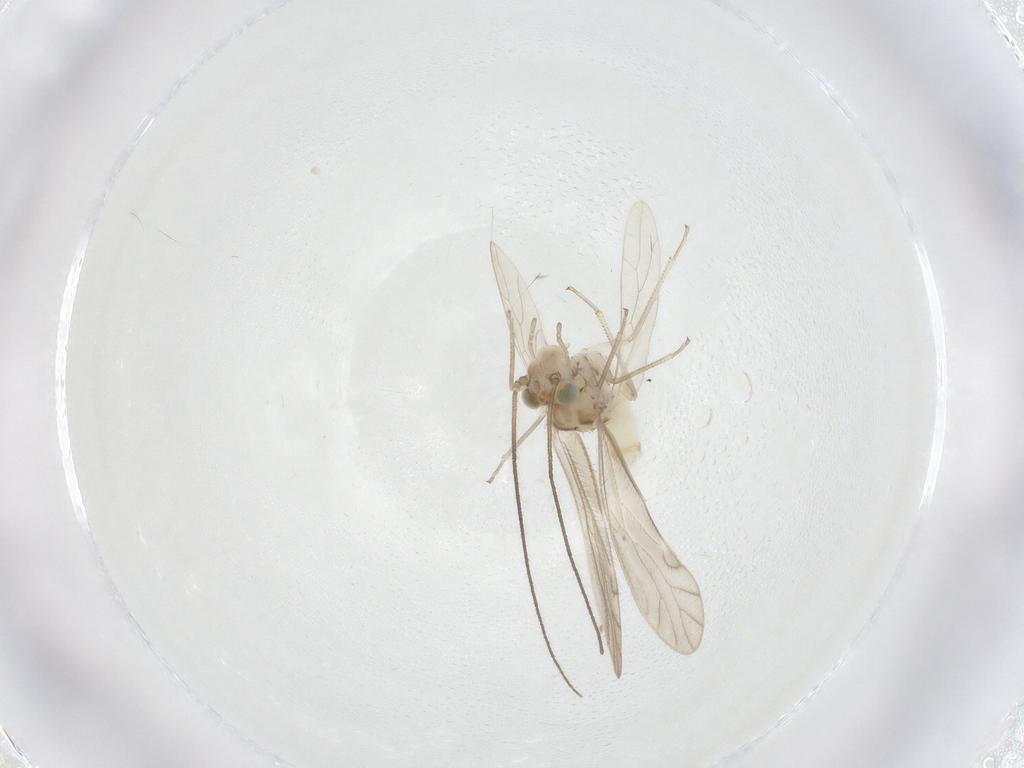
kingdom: Animalia
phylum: Arthropoda
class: Insecta
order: Psocodea
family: Caeciliusidae
